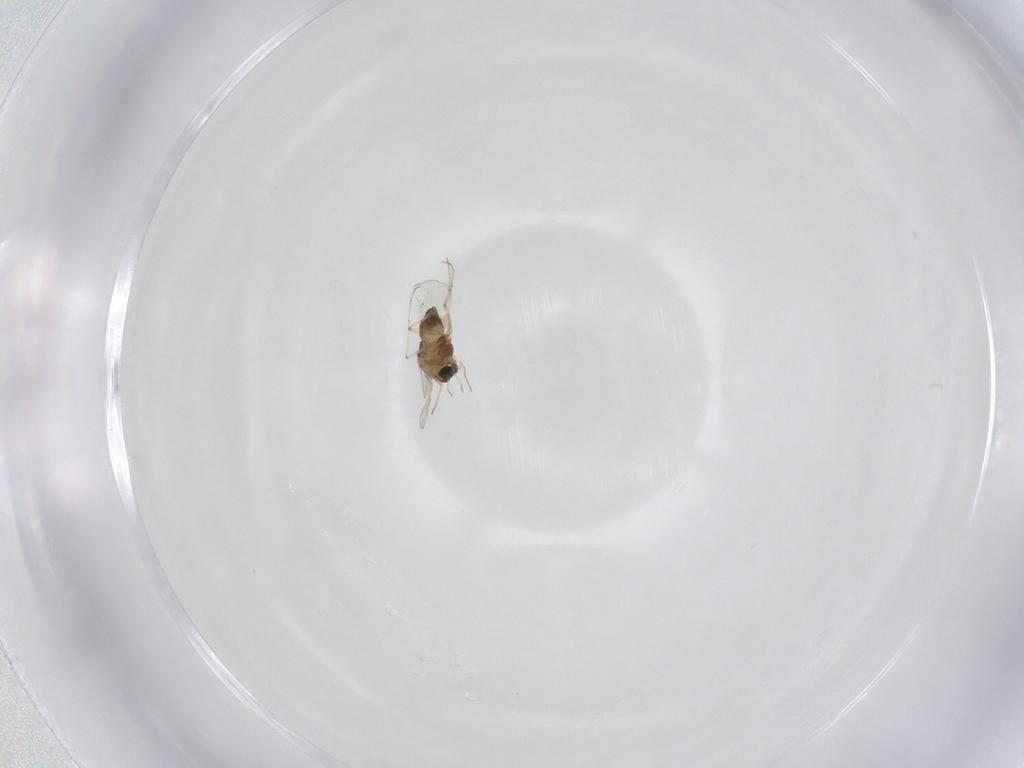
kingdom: Animalia
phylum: Arthropoda
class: Insecta
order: Diptera
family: Chironomidae
